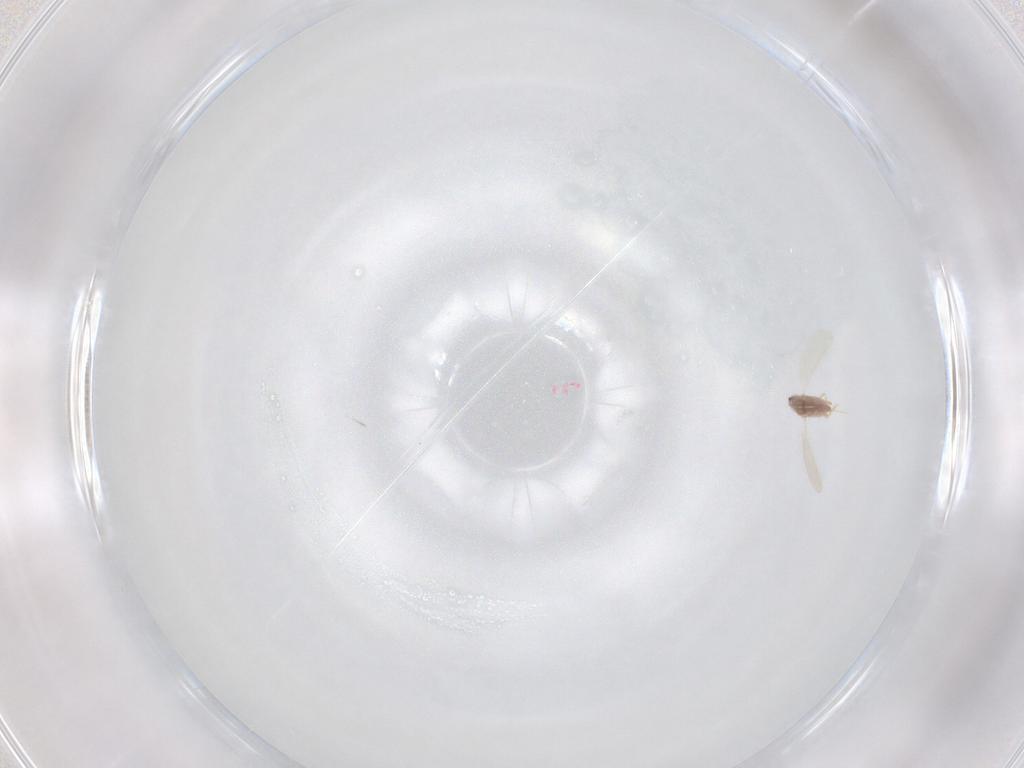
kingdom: Animalia
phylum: Arthropoda
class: Insecta
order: Hemiptera
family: Diaspididae
